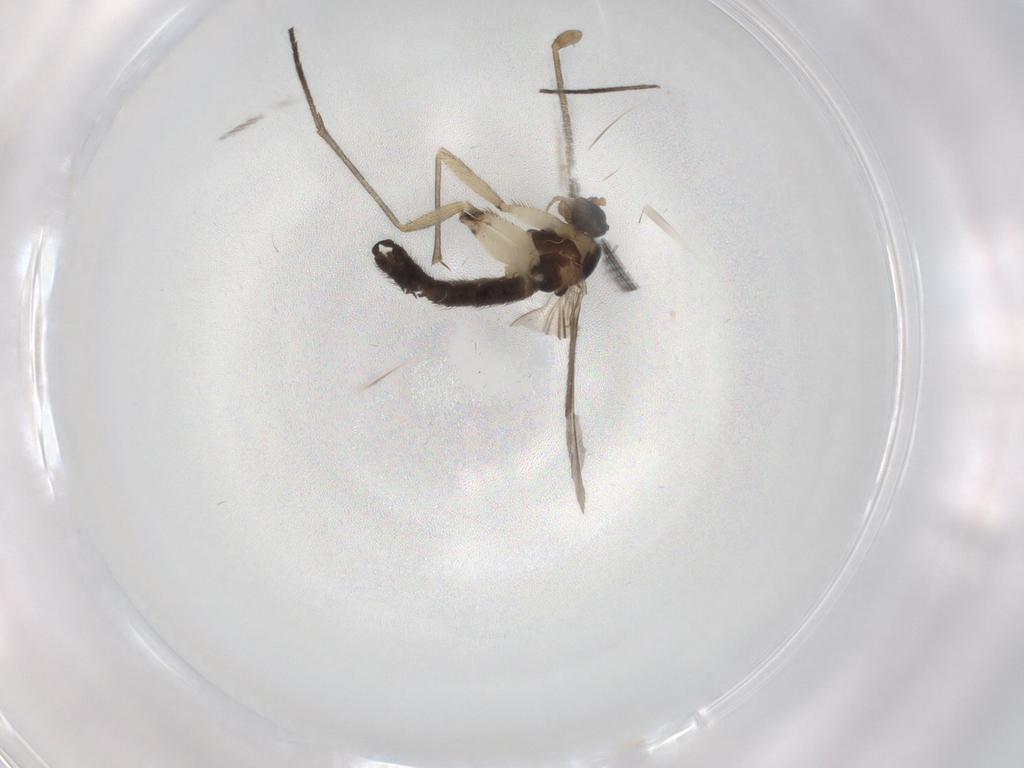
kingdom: Animalia
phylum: Arthropoda
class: Insecta
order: Diptera
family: Sciaridae
